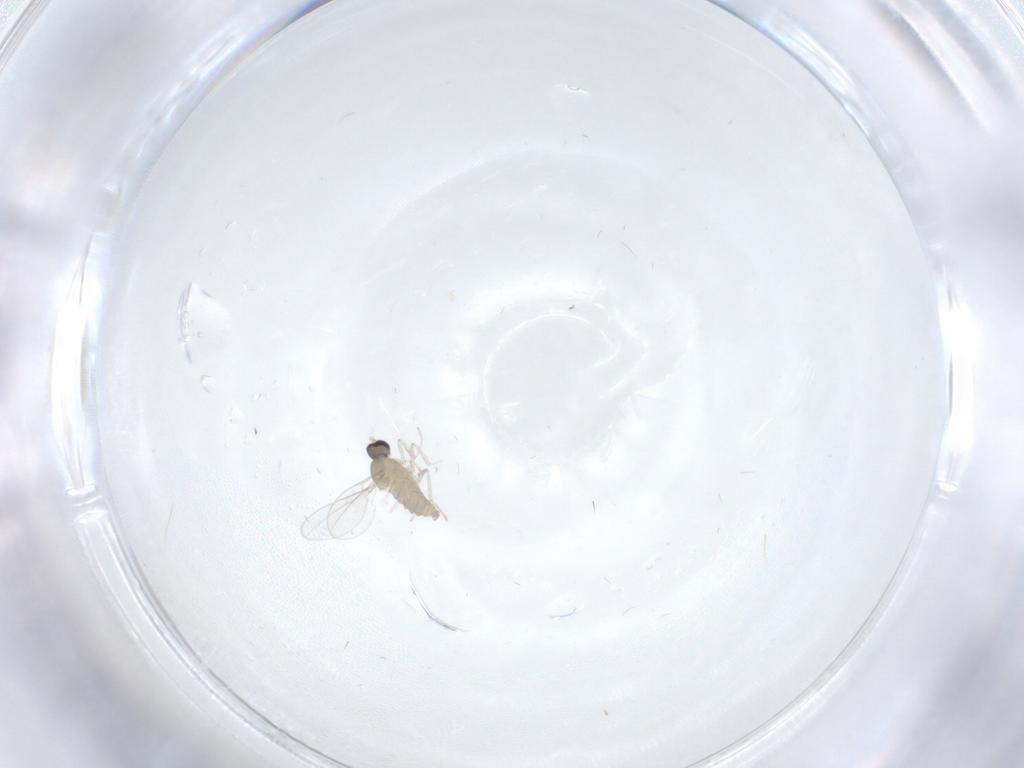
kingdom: Animalia
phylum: Arthropoda
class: Insecta
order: Diptera
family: Cecidomyiidae
